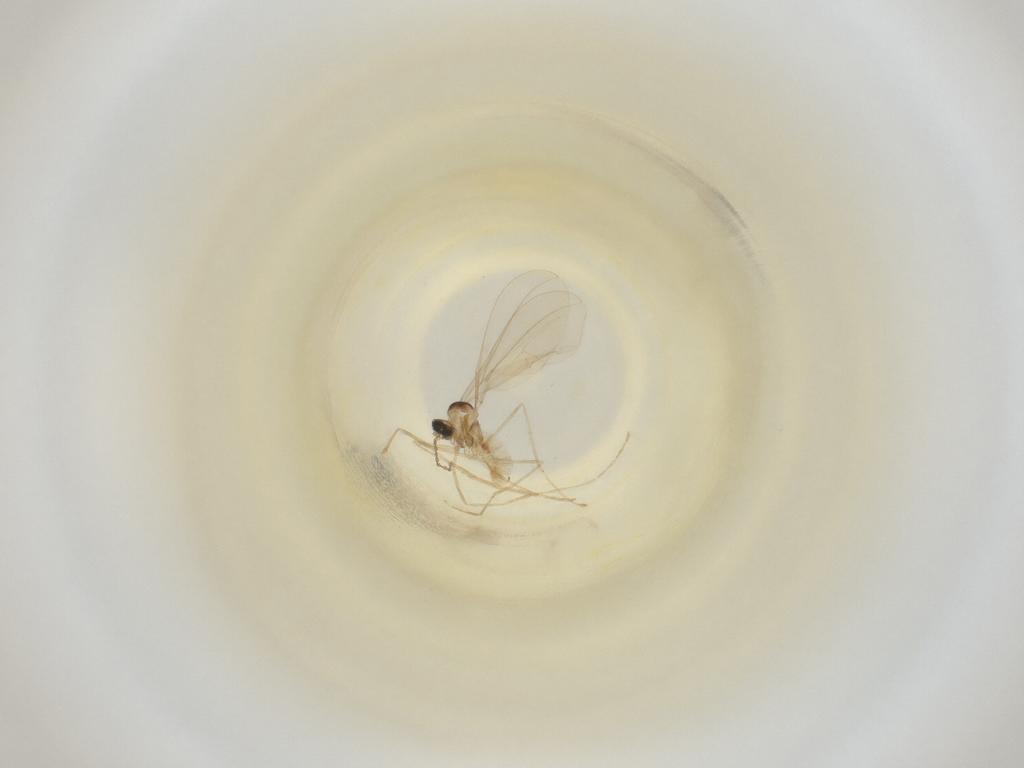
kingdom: Animalia
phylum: Arthropoda
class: Insecta
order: Diptera
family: Cecidomyiidae
